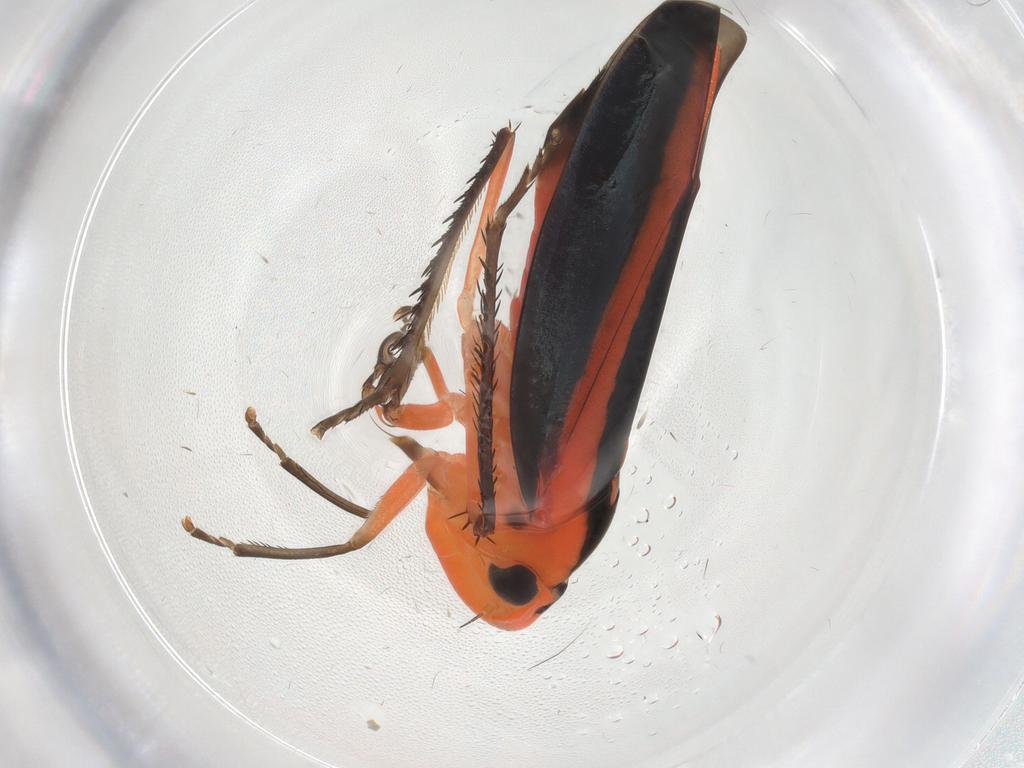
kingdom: Animalia
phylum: Arthropoda
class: Insecta
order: Hemiptera
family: Cicadellidae
